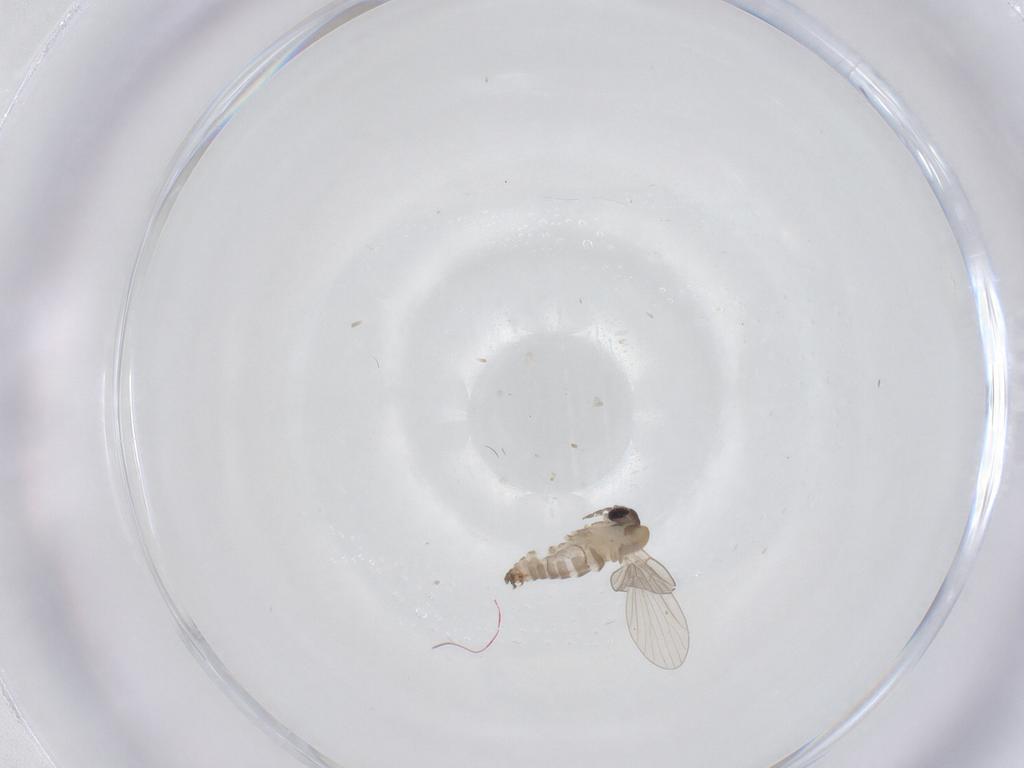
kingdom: Animalia
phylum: Arthropoda
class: Insecta
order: Diptera
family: Psychodidae
